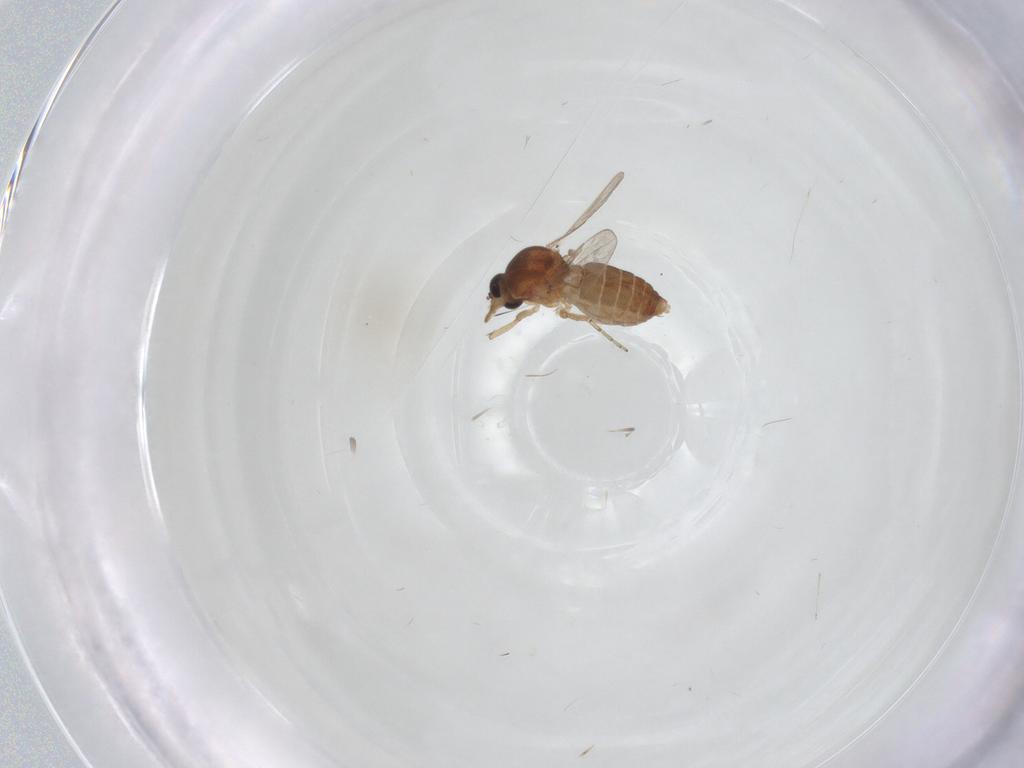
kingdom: Animalia
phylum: Arthropoda
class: Insecta
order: Diptera
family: Ceratopogonidae
